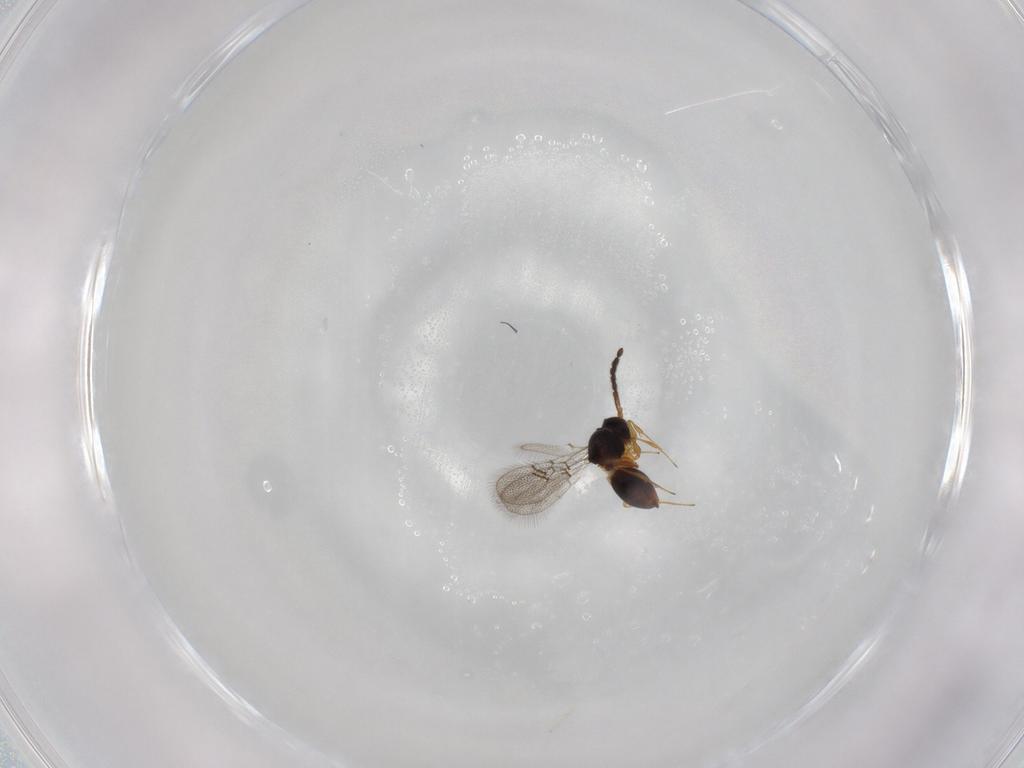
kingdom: Animalia
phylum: Arthropoda
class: Insecta
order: Hymenoptera
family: Figitidae
